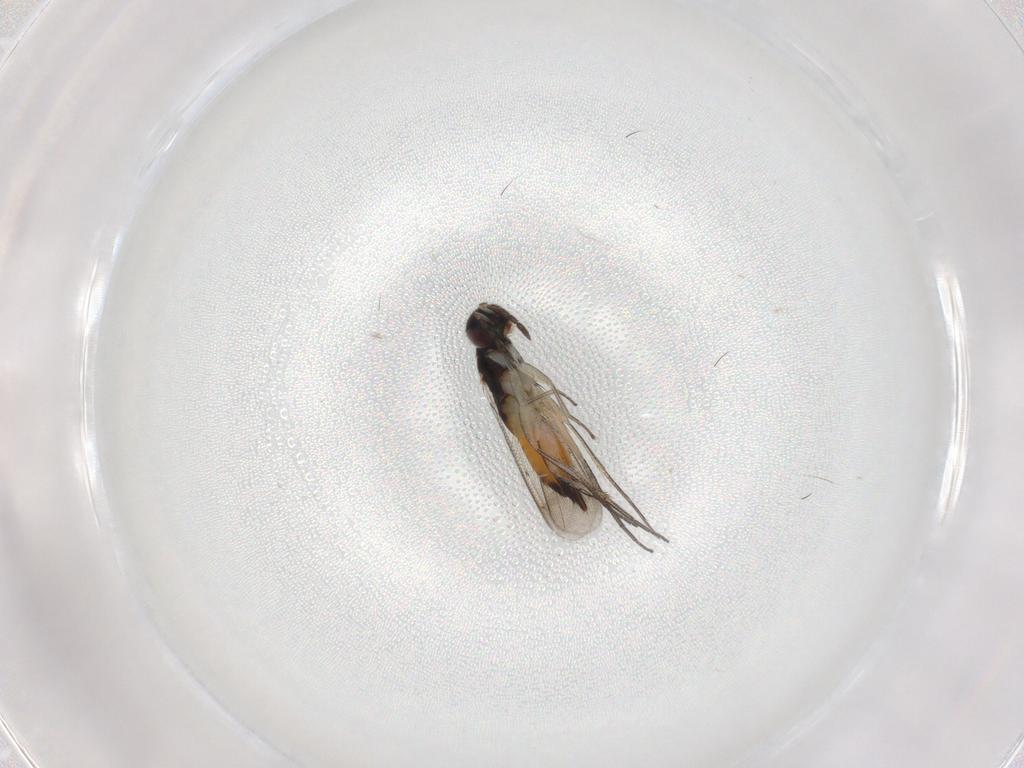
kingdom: Animalia
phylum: Arthropoda
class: Insecta
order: Hymenoptera
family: Eulophidae
